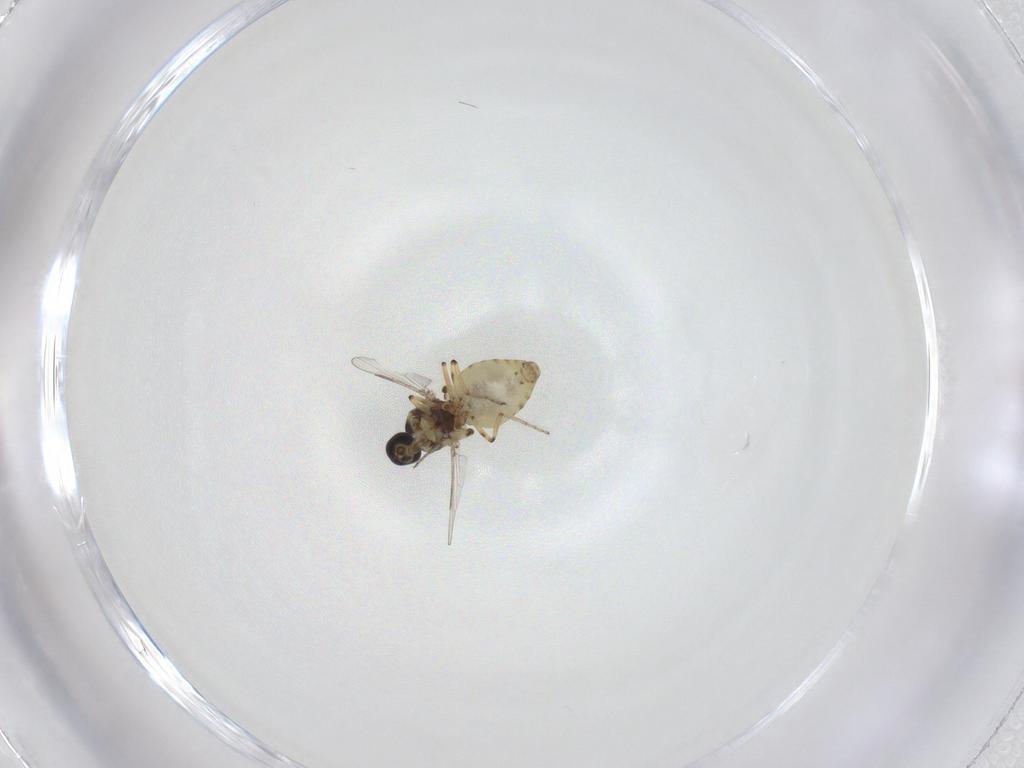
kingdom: Animalia
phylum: Arthropoda
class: Insecta
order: Diptera
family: Ceratopogonidae
